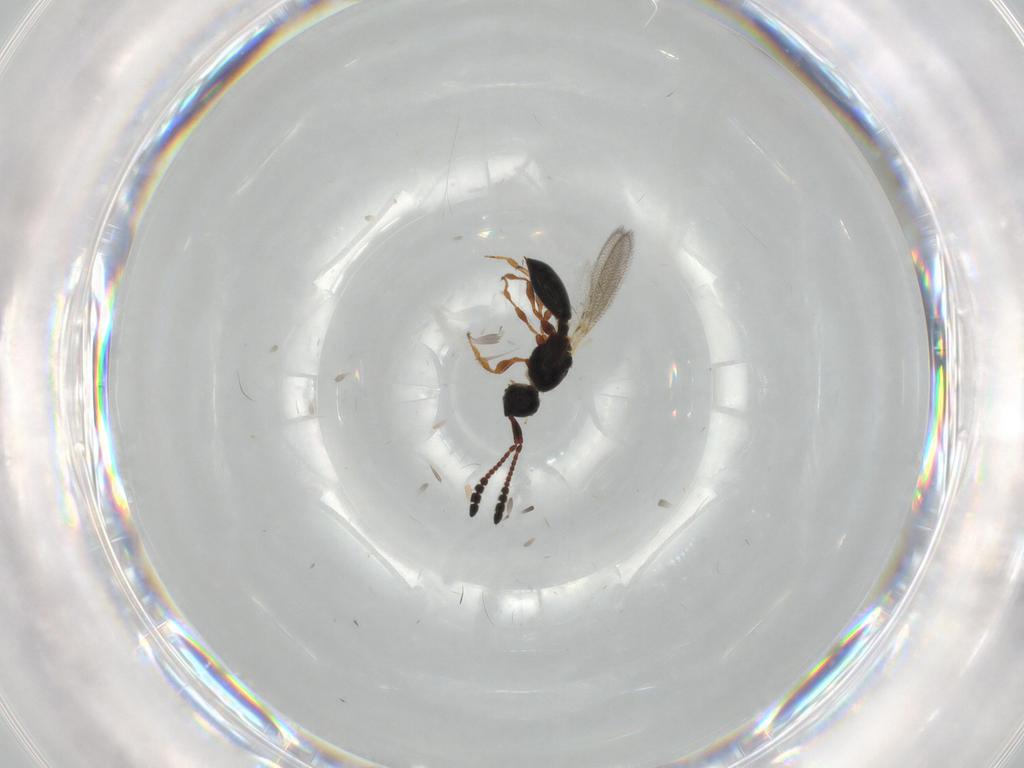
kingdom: Animalia
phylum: Arthropoda
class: Insecta
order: Hymenoptera
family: Diapriidae
